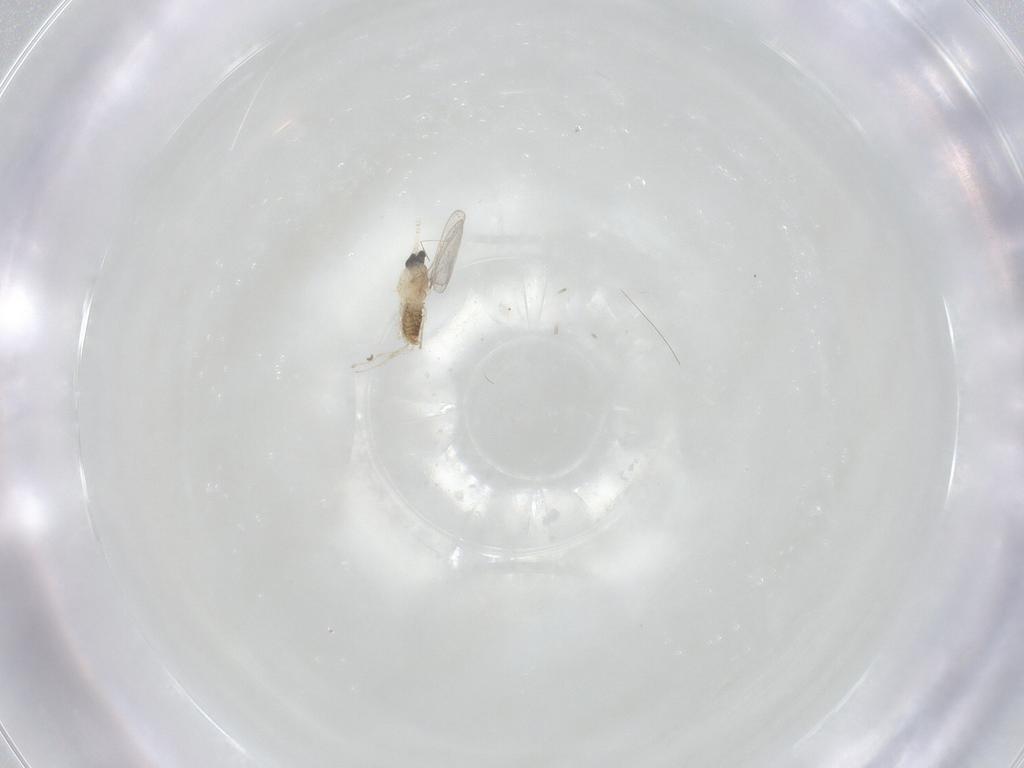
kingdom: Animalia
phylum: Arthropoda
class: Insecta
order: Diptera
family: Cecidomyiidae
